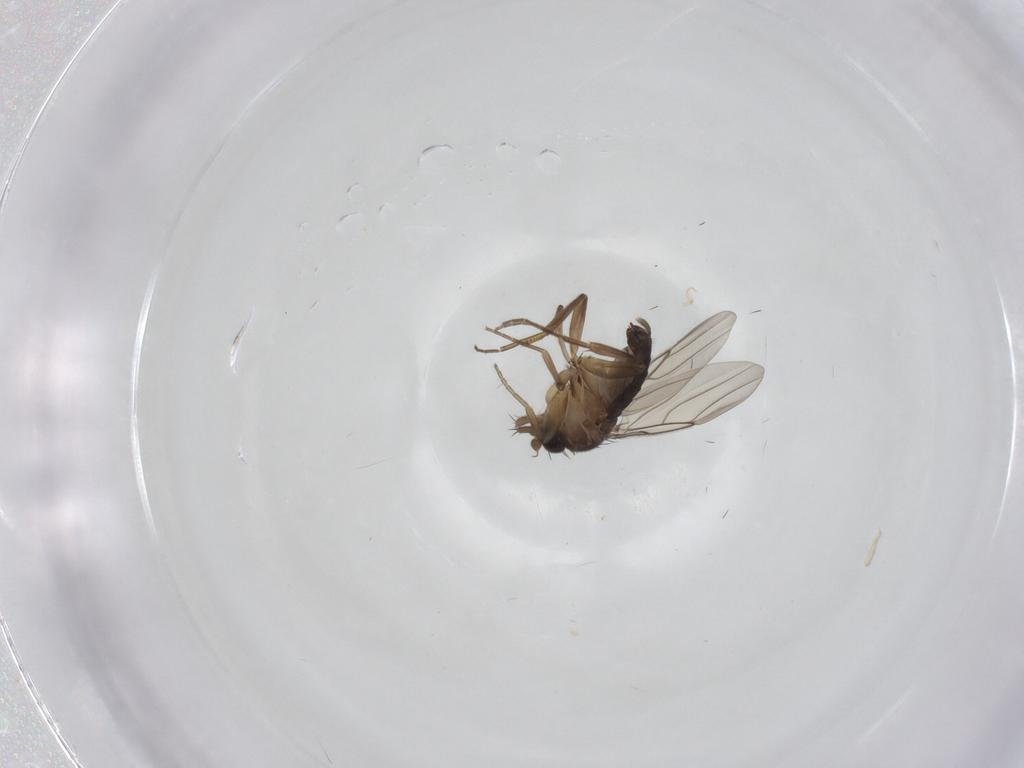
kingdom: Animalia
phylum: Arthropoda
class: Insecta
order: Diptera
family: Phoridae
